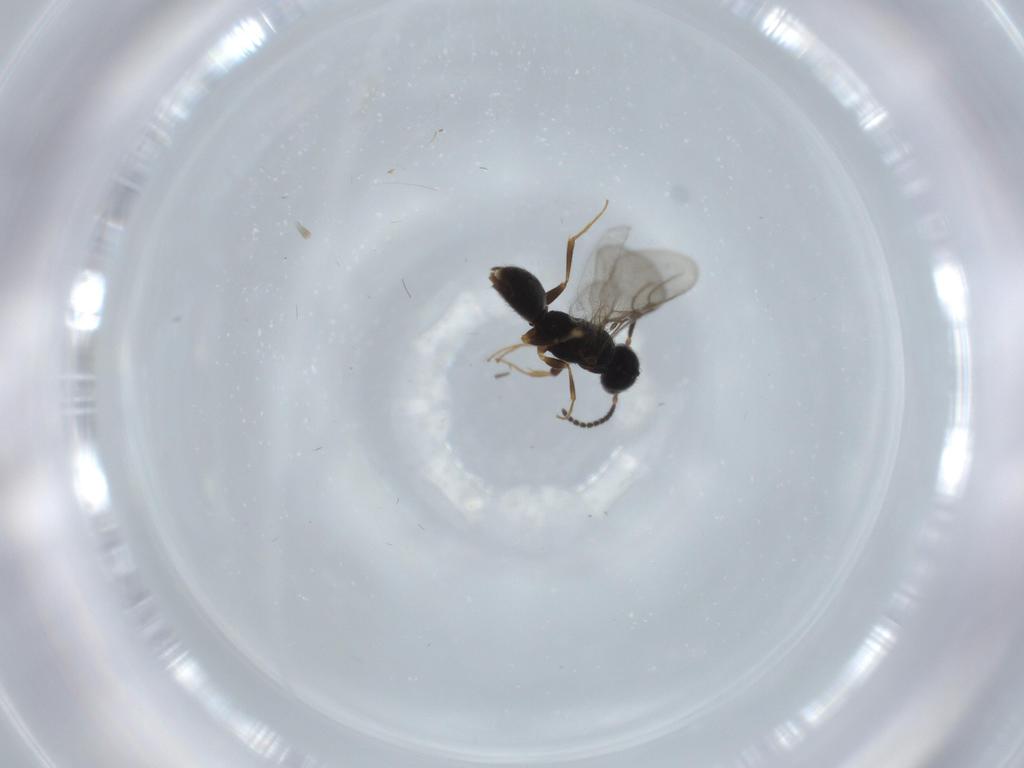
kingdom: Animalia
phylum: Arthropoda
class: Insecta
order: Hymenoptera
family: Bethylidae
